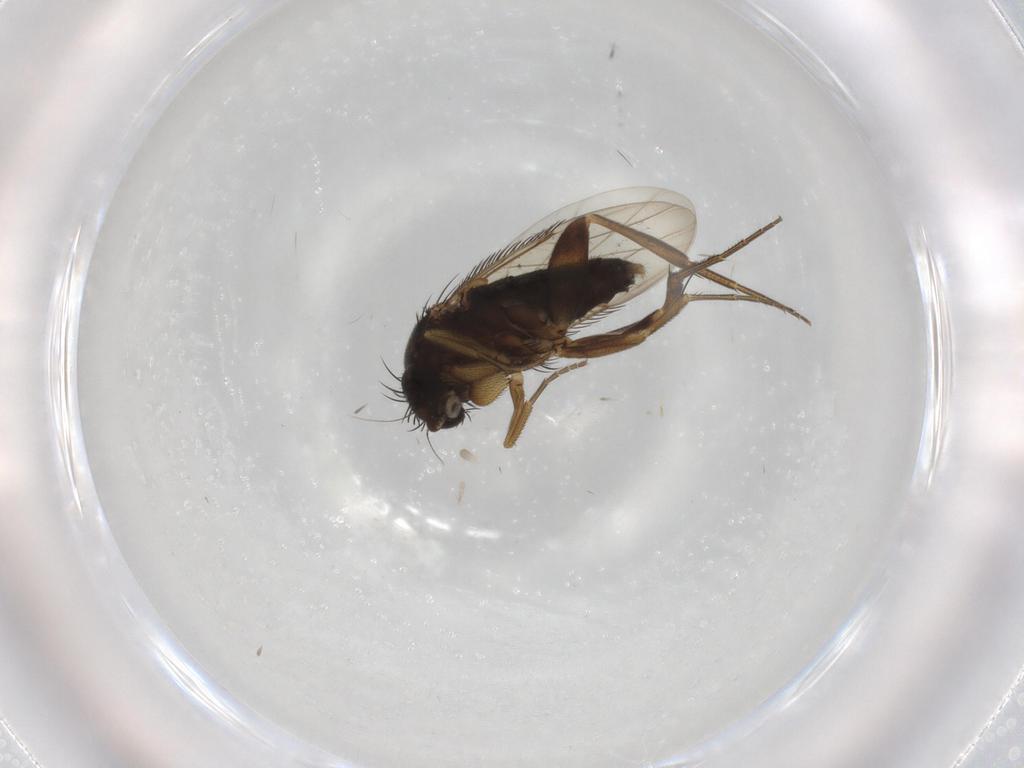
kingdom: Animalia
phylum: Arthropoda
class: Insecta
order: Diptera
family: Phoridae
